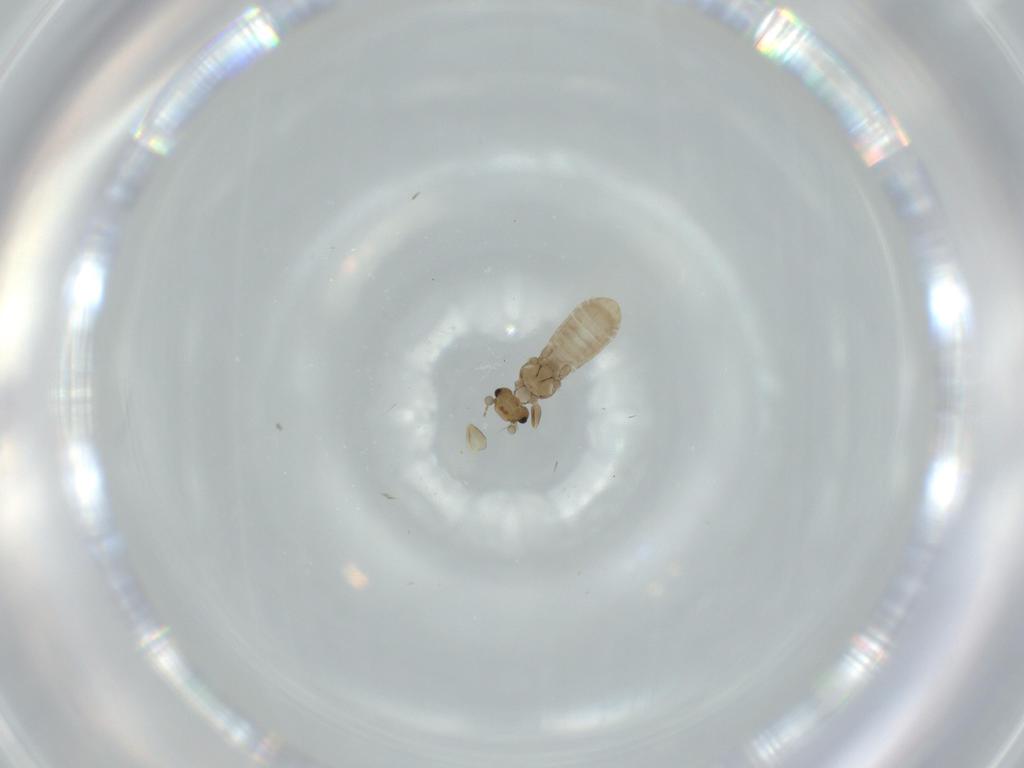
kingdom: Animalia
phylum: Arthropoda
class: Insecta
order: Psocodea
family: Liposcelididae
